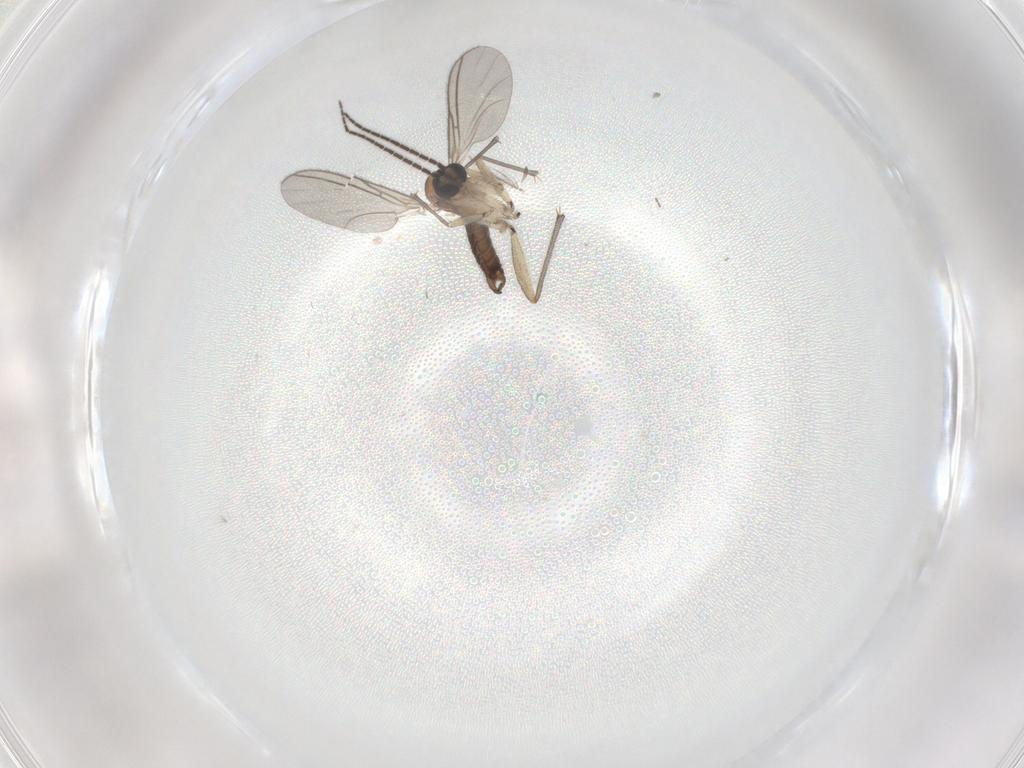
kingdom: Animalia
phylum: Arthropoda
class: Insecta
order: Diptera
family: Sciaridae
